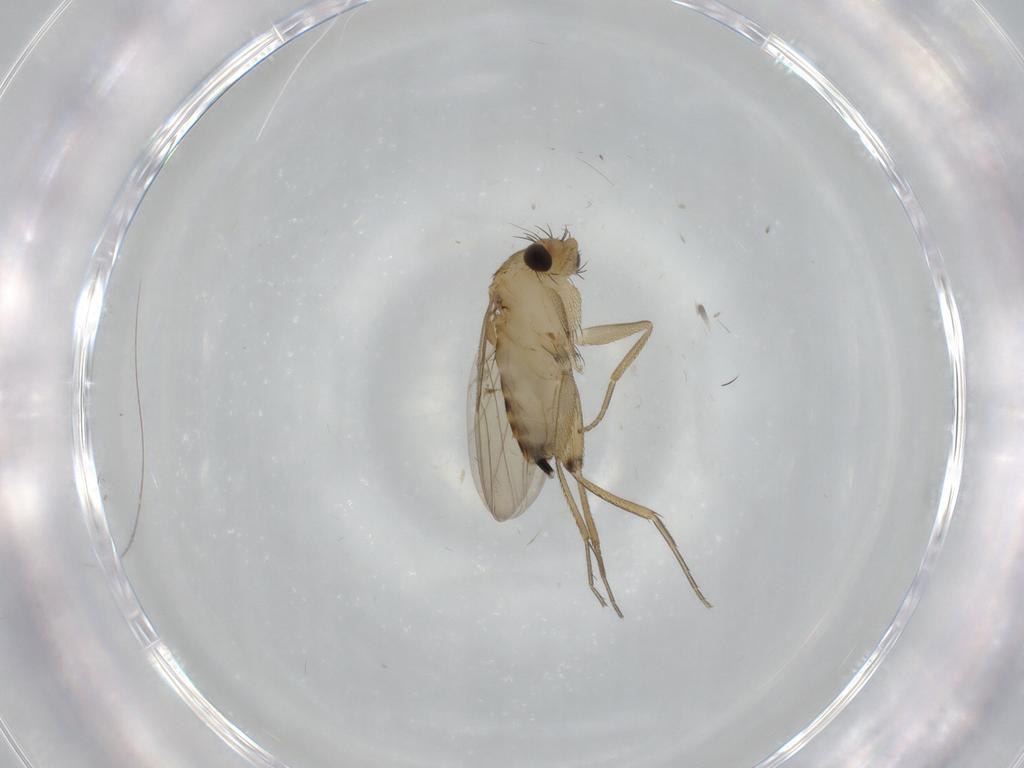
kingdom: Animalia
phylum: Arthropoda
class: Insecta
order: Diptera
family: Phoridae
